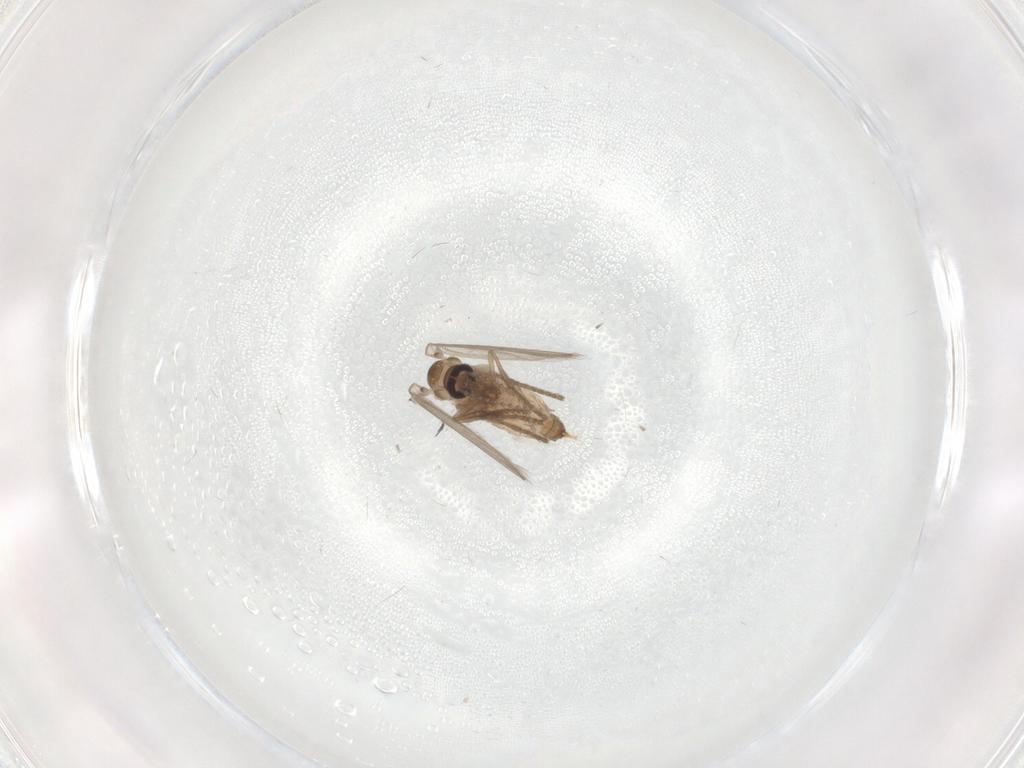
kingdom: Animalia
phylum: Arthropoda
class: Insecta
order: Diptera
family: Psychodidae
